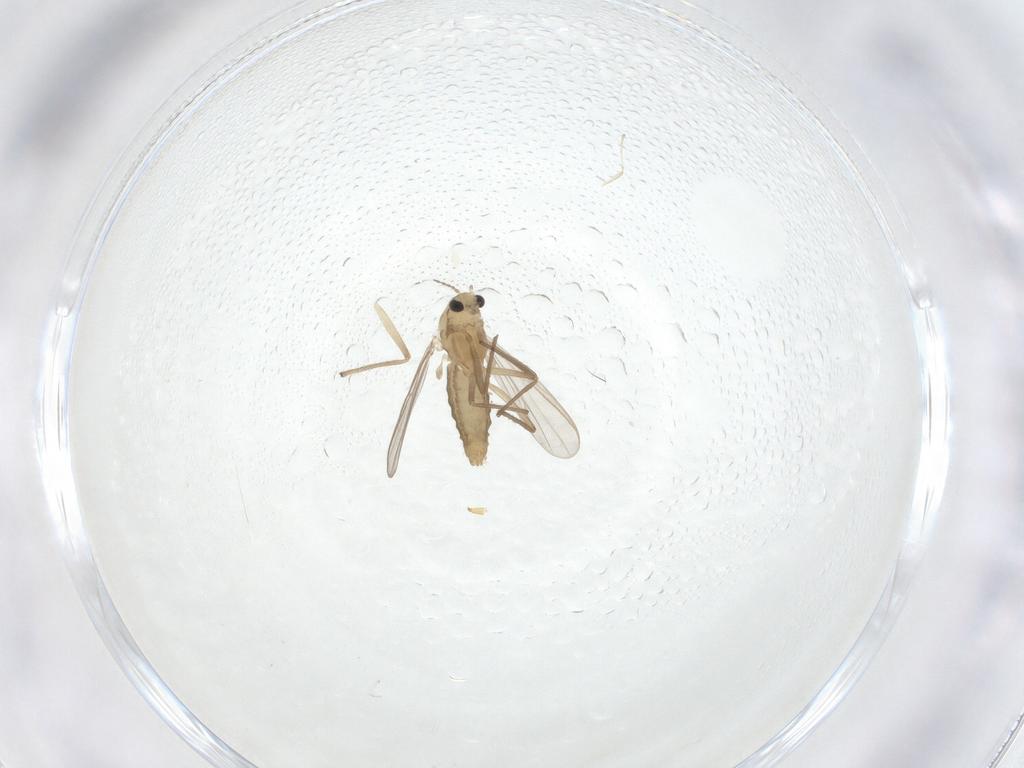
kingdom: Animalia
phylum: Arthropoda
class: Insecta
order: Diptera
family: Chironomidae
